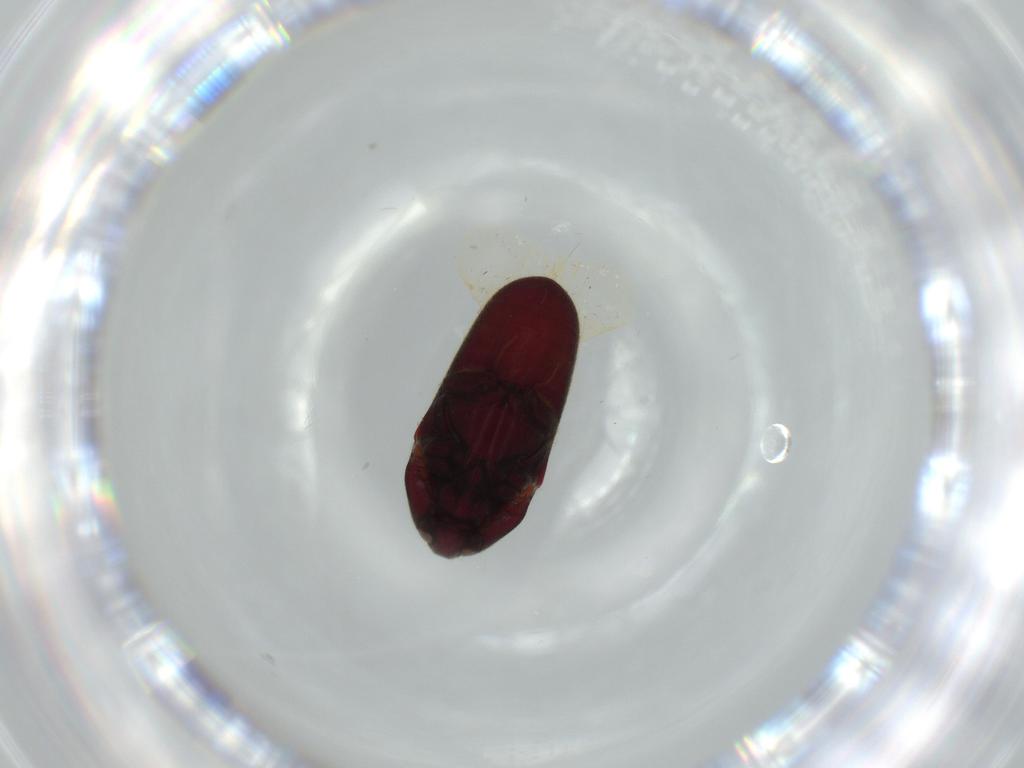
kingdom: Animalia
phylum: Arthropoda
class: Insecta
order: Coleoptera
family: Throscidae
